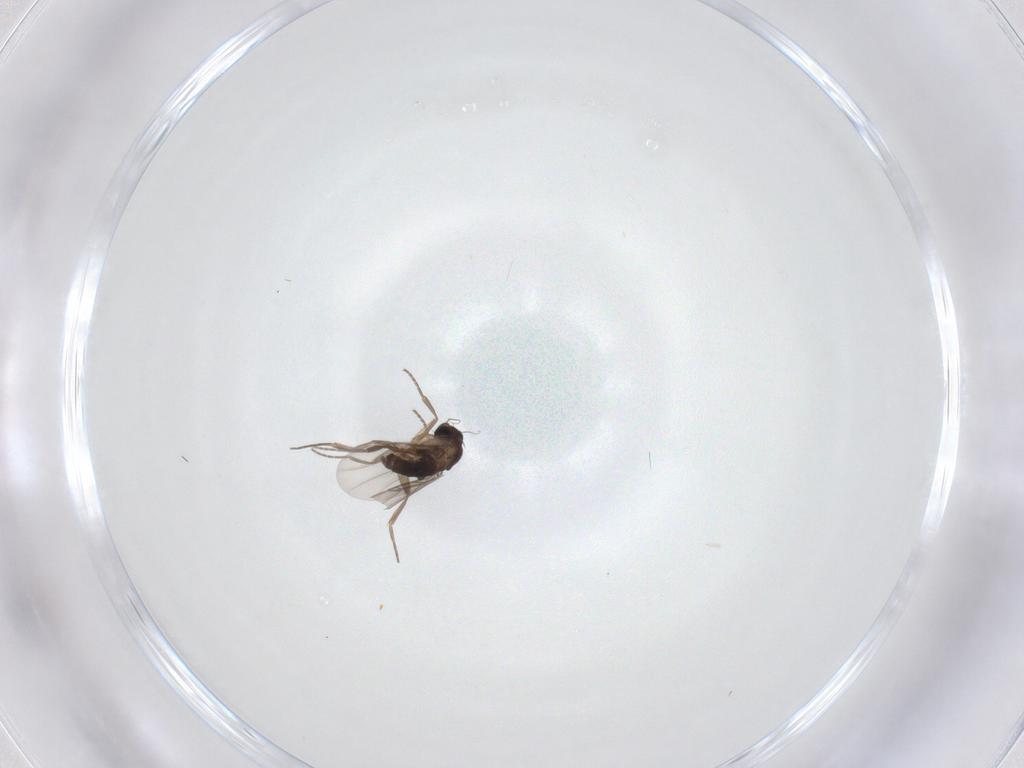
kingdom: Animalia
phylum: Arthropoda
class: Insecta
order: Diptera
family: Phoridae
